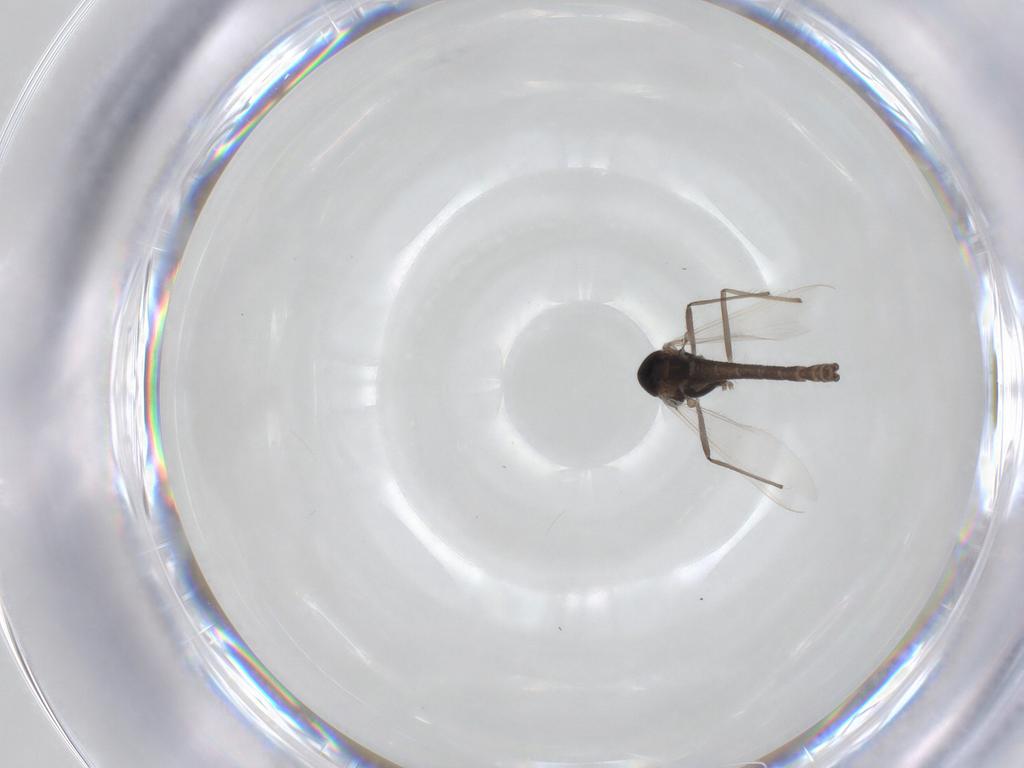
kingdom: Animalia
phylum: Arthropoda
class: Insecta
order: Diptera
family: Chironomidae
